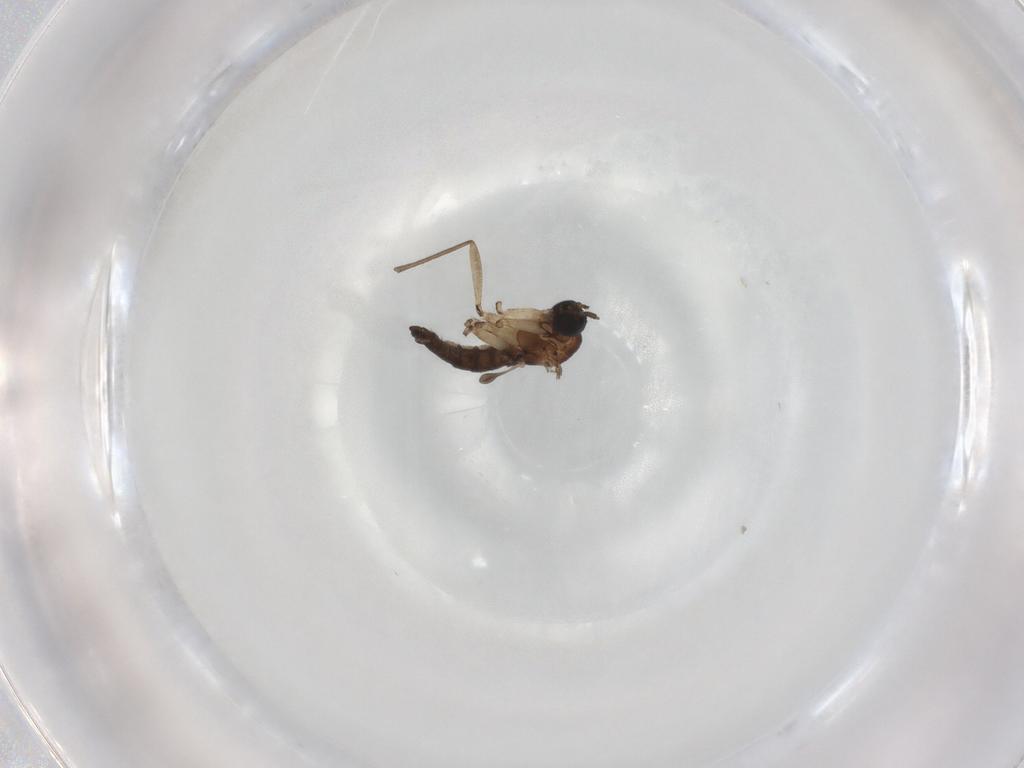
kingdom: Animalia
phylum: Arthropoda
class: Insecta
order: Diptera
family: Sciaridae
